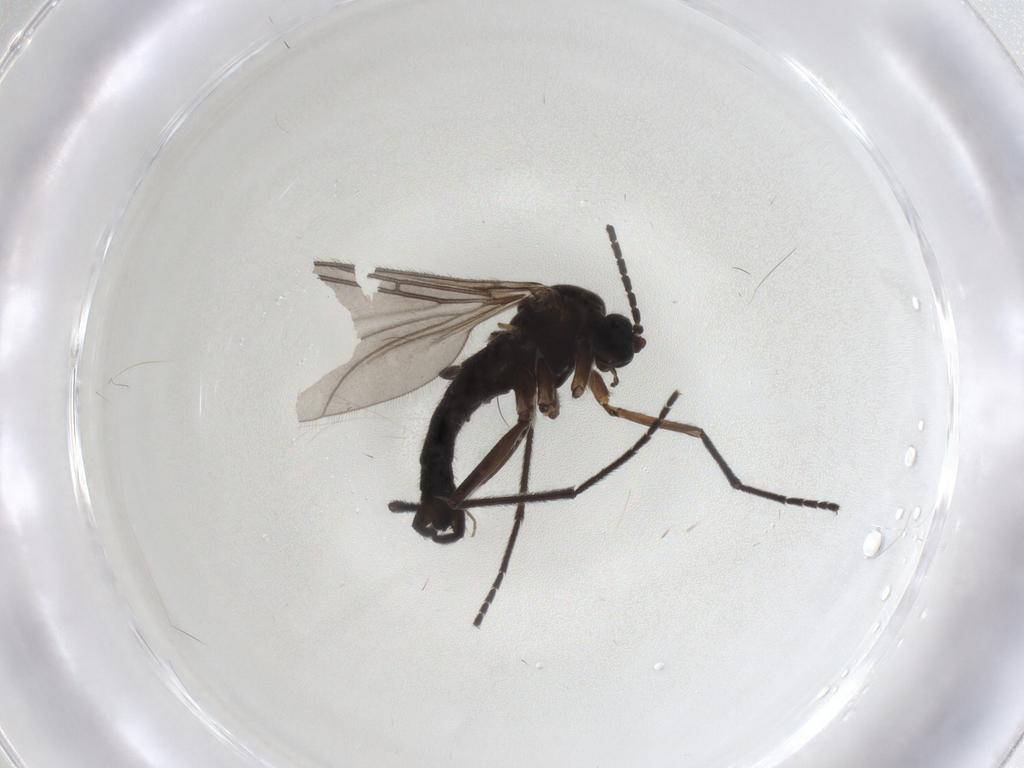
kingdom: Animalia
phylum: Arthropoda
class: Insecta
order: Diptera
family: Sciaridae
